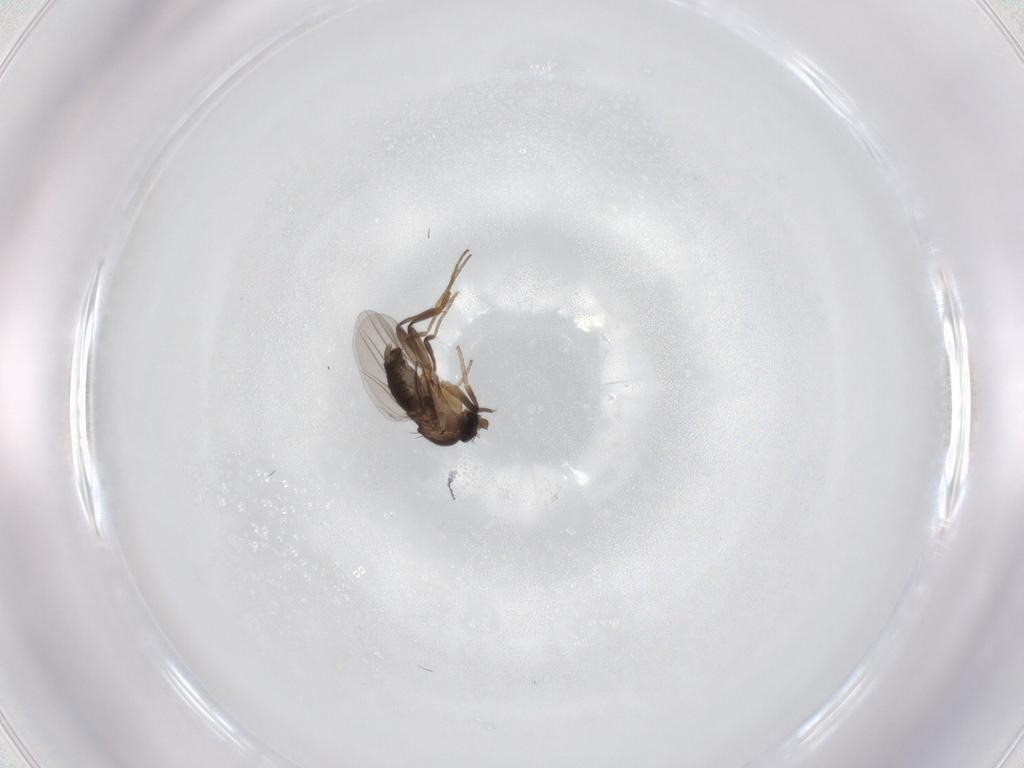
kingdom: Animalia
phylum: Arthropoda
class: Insecta
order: Diptera
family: Phoridae
